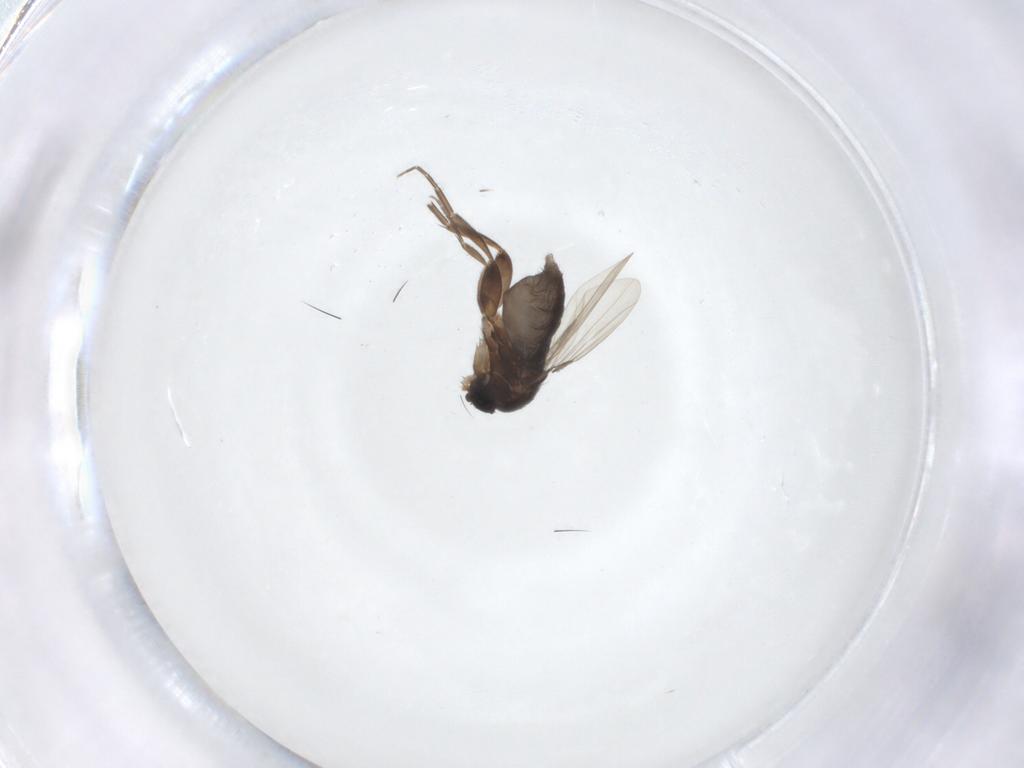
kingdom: Animalia
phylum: Arthropoda
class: Insecta
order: Diptera
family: Phoridae
